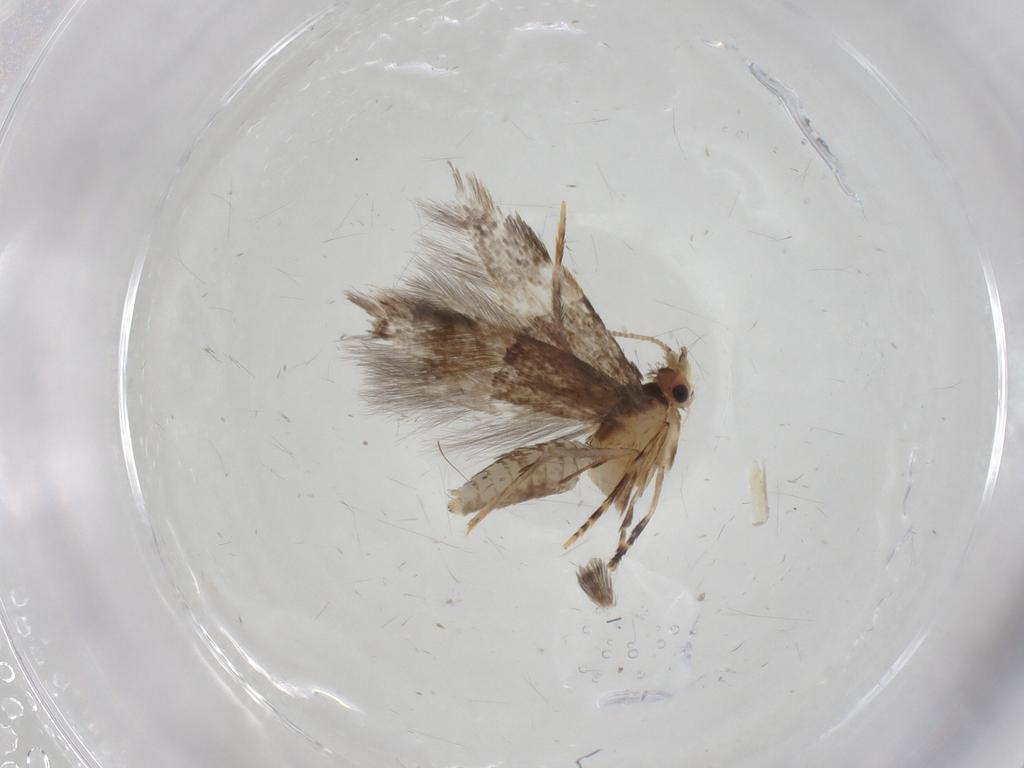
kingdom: Animalia
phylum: Arthropoda
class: Insecta
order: Lepidoptera
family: Tineidae
